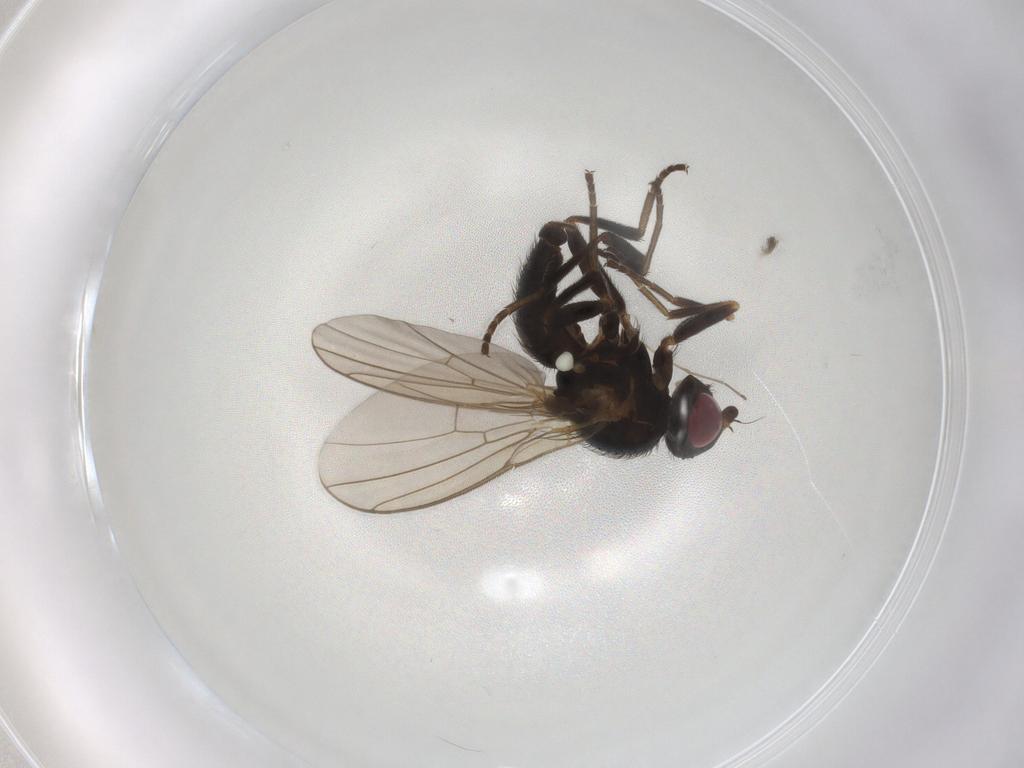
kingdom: Animalia
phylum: Arthropoda
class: Insecta
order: Diptera
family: Agromyzidae
